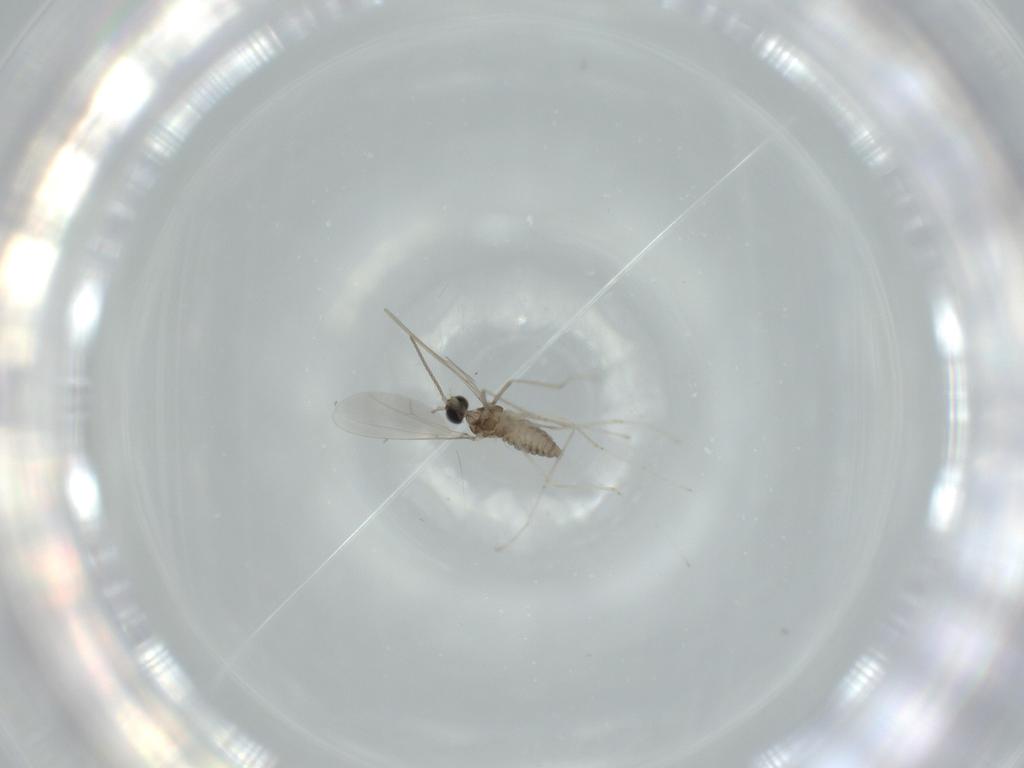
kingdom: Animalia
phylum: Arthropoda
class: Insecta
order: Diptera
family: Cecidomyiidae
